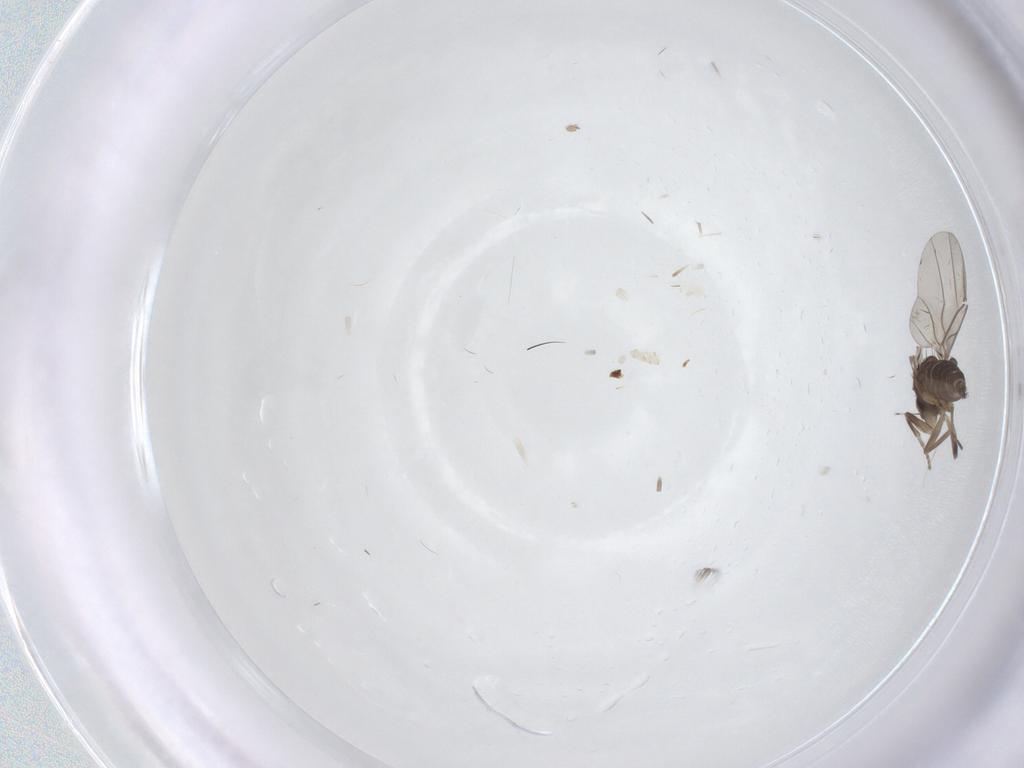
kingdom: Animalia
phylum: Arthropoda
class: Insecta
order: Diptera
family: Cecidomyiidae
